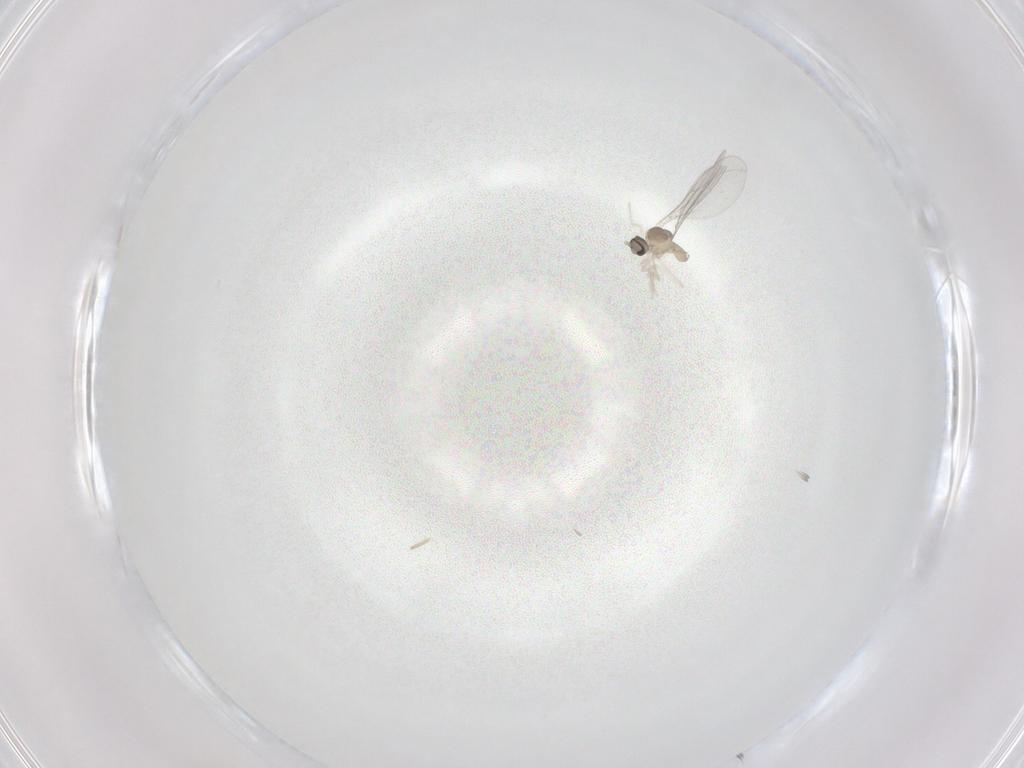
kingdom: Animalia
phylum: Arthropoda
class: Insecta
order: Diptera
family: Cecidomyiidae
